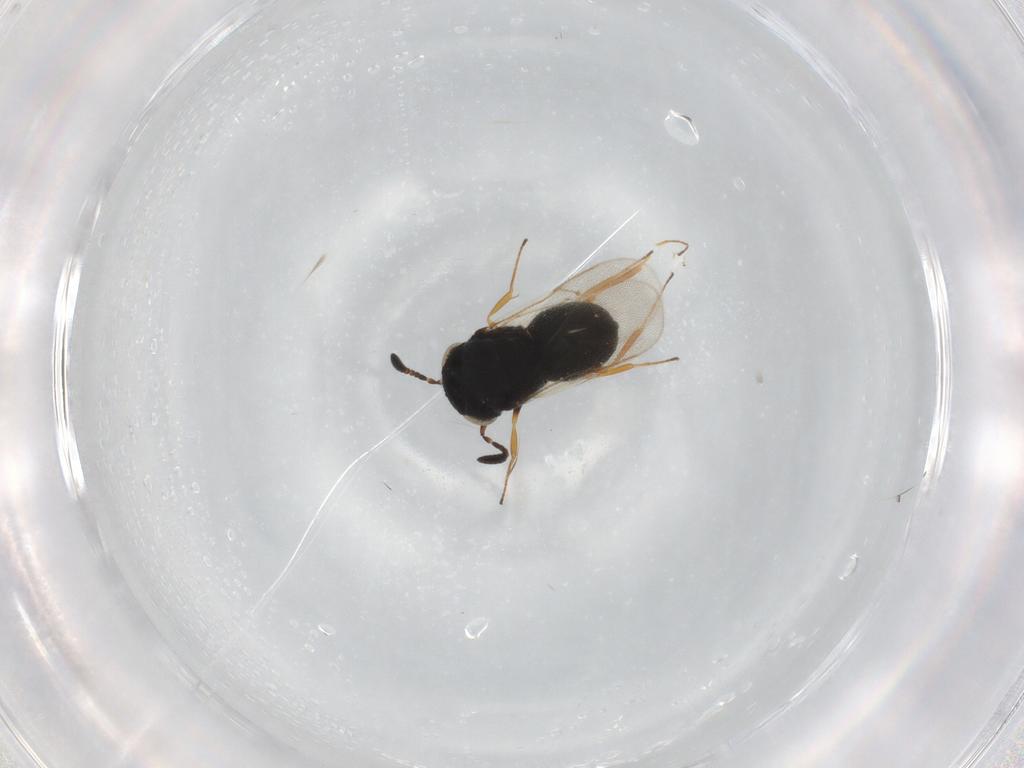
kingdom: Animalia
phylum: Arthropoda
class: Insecta
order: Hymenoptera
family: Scelionidae
